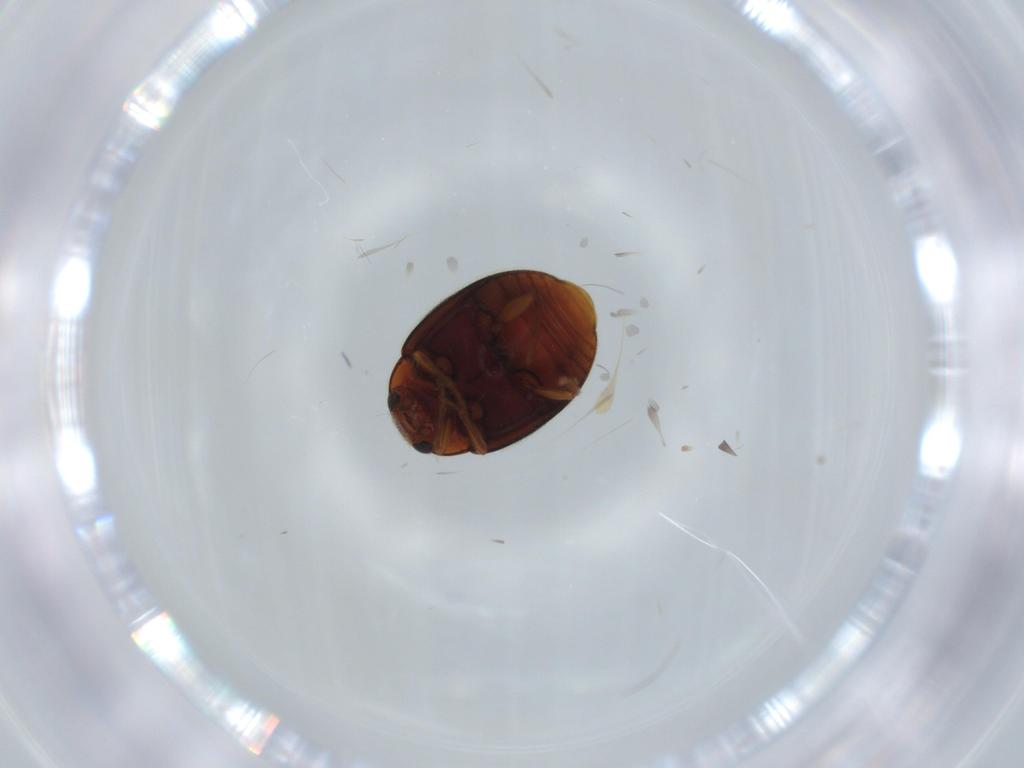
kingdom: Animalia
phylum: Arthropoda
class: Insecta
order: Coleoptera
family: Coccinellidae
